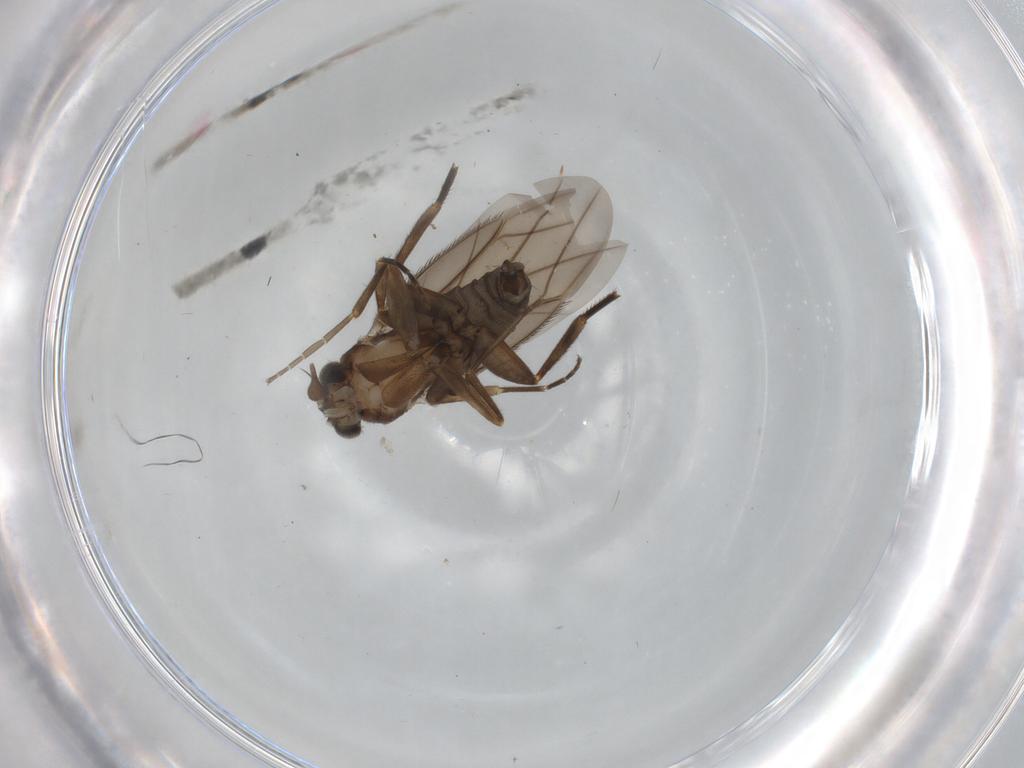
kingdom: Animalia
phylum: Arthropoda
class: Insecta
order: Diptera
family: Phoridae
